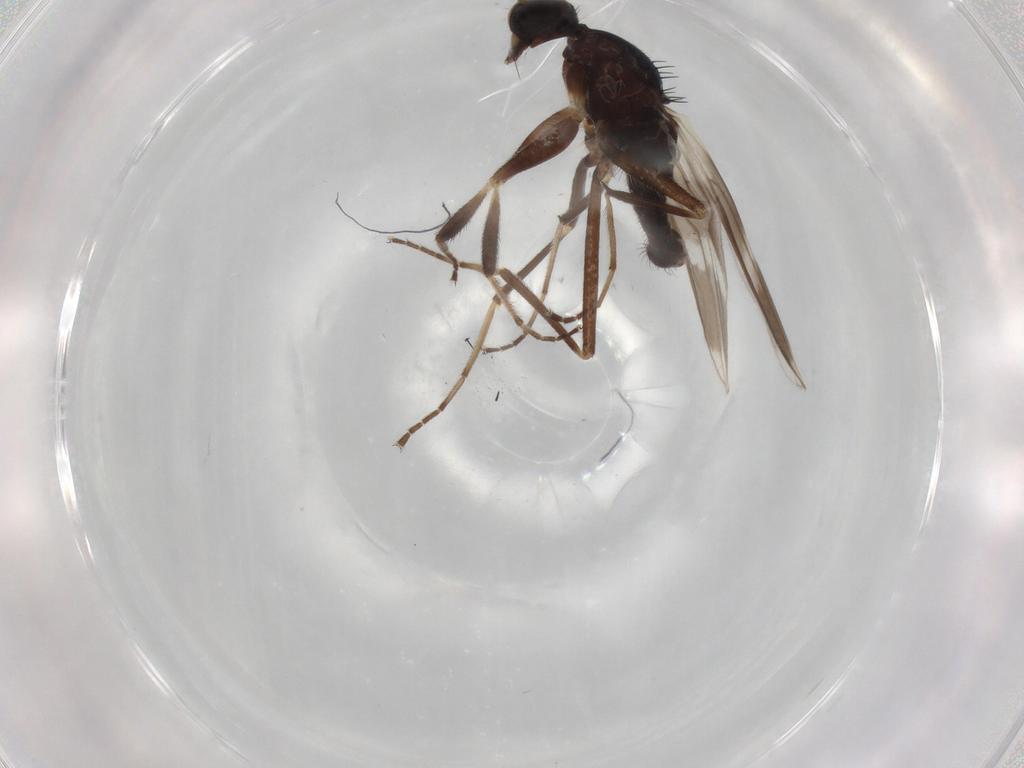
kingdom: Animalia
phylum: Arthropoda
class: Insecta
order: Diptera
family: Hybotidae
